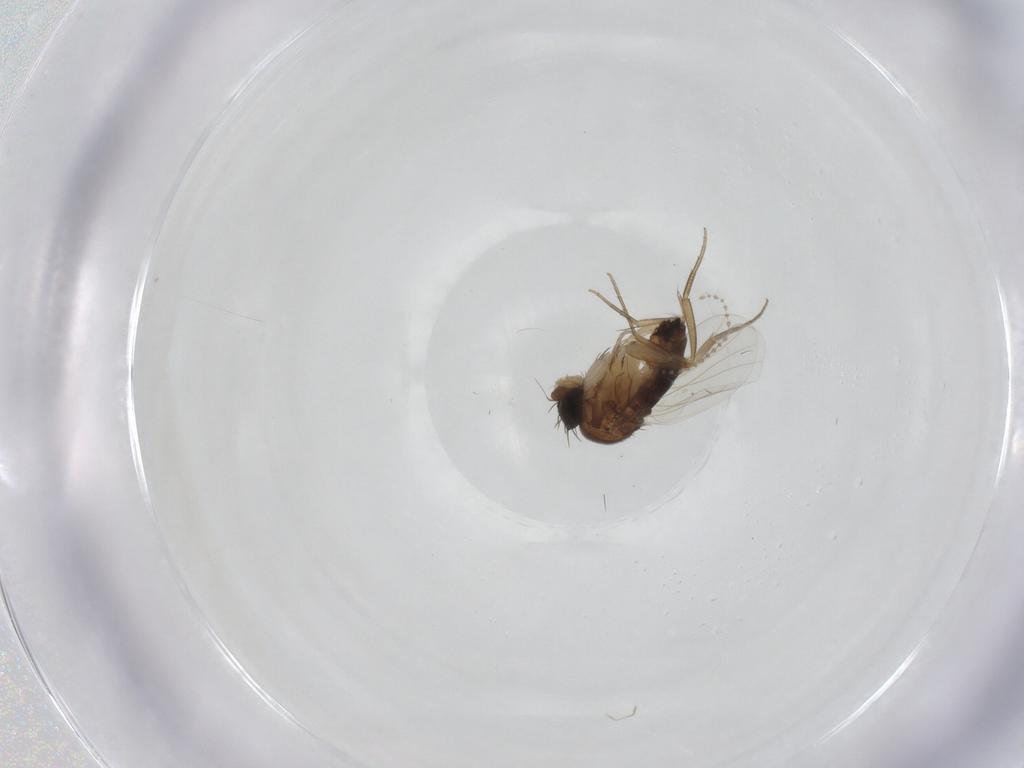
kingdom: Animalia
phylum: Arthropoda
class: Insecta
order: Diptera
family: Phoridae
